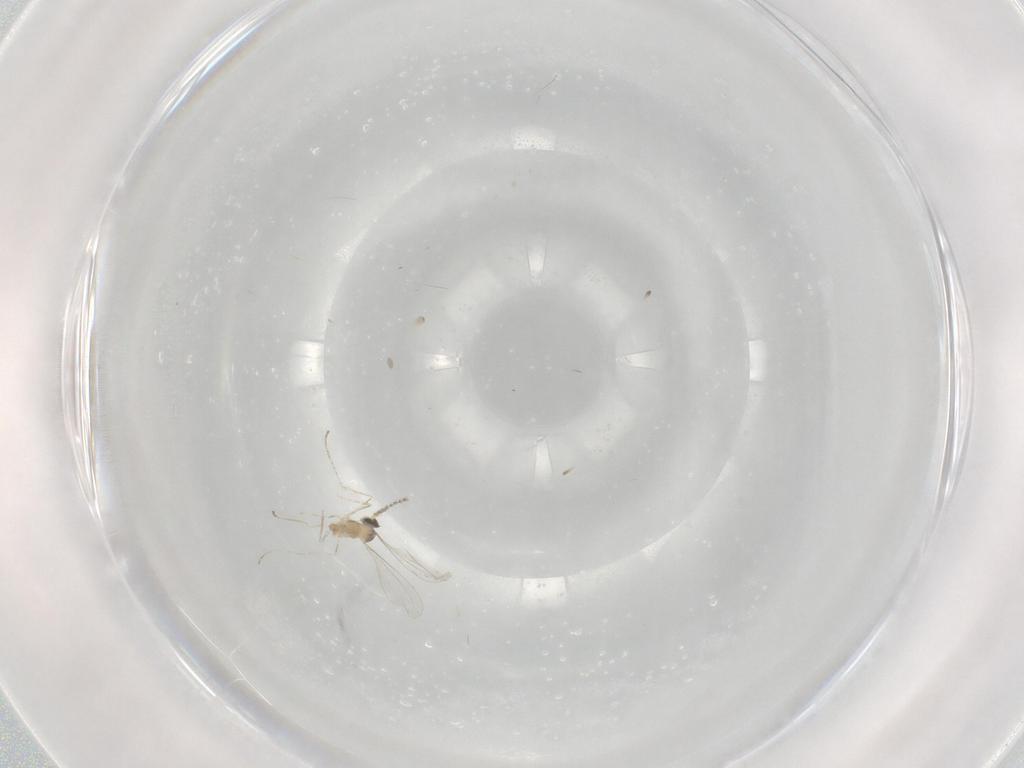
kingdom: Animalia
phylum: Arthropoda
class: Insecta
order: Diptera
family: Cecidomyiidae
